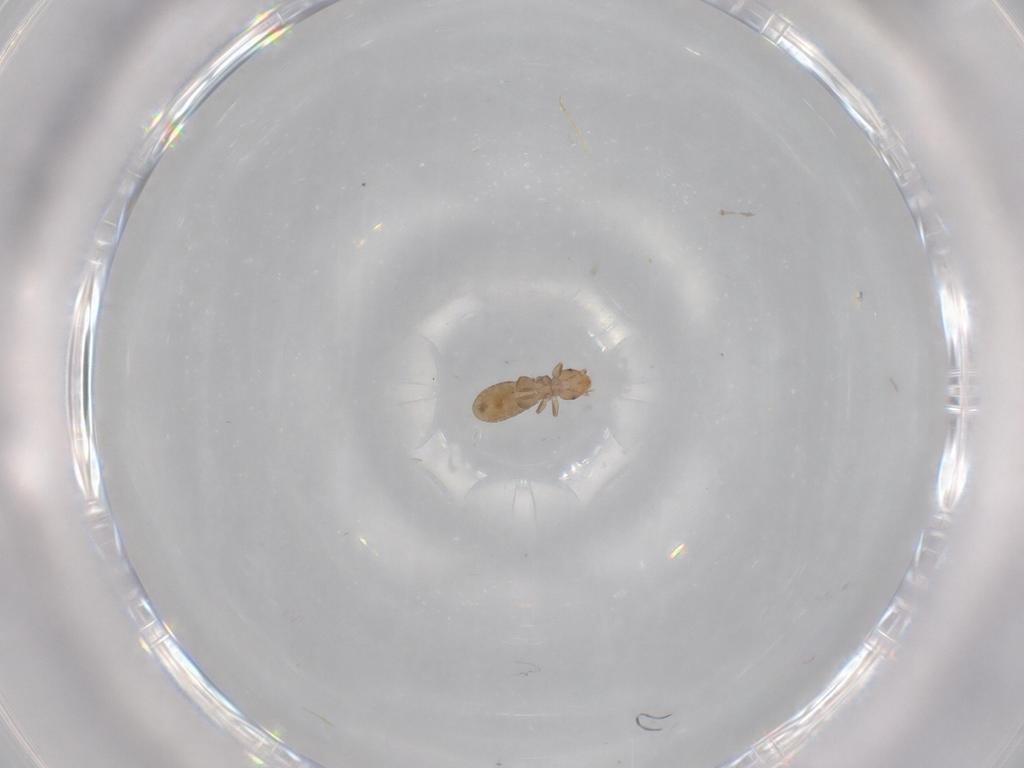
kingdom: Animalia
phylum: Arthropoda
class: Insecta
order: Psocodea
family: Liposcelididae
